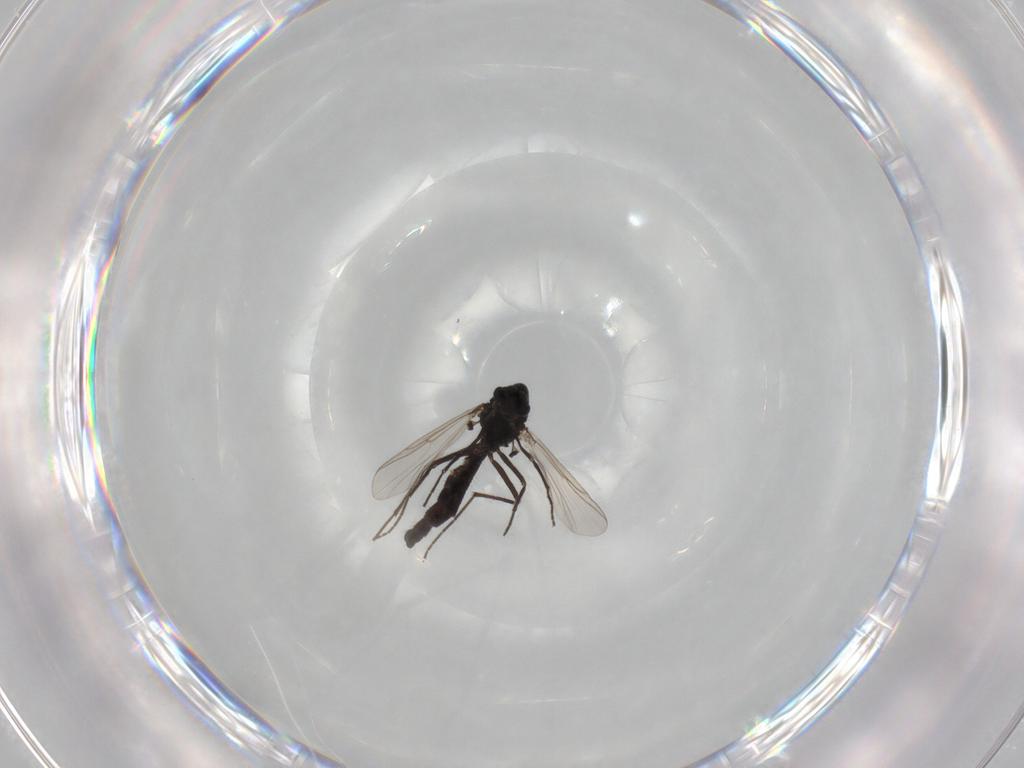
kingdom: Animalia
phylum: Arthropoda
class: Insecta
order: Diptera
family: Chironomidae
